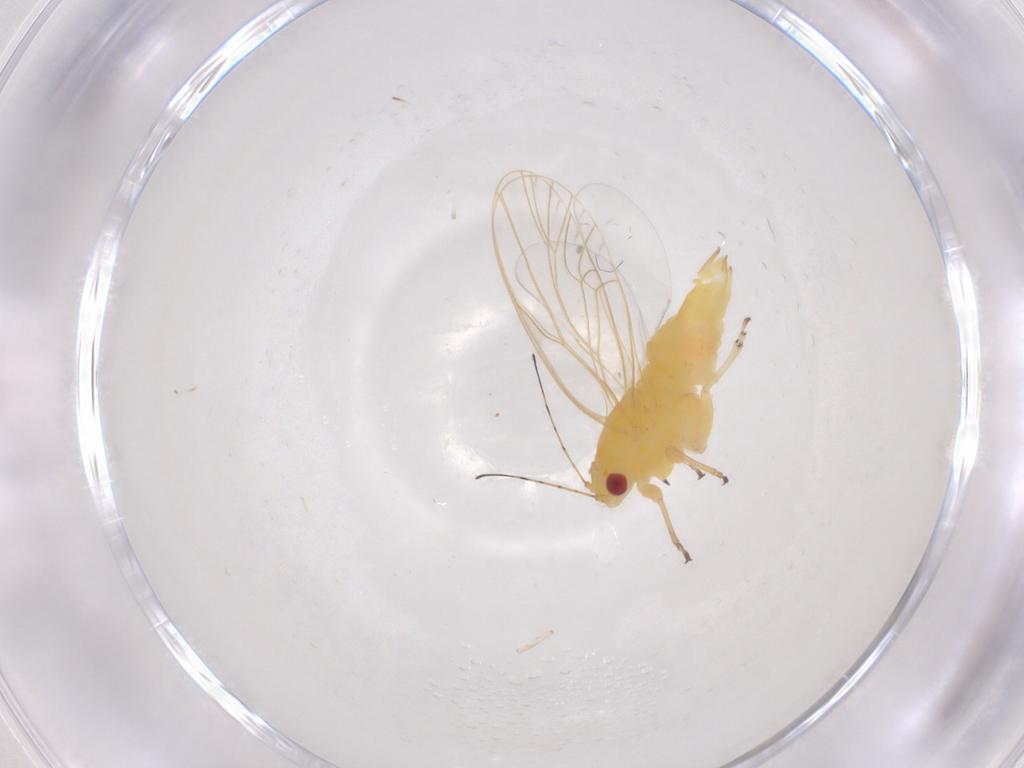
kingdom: Animalia
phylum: Arthropoda
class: Insecta
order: Hemiptera
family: Psyllidae
